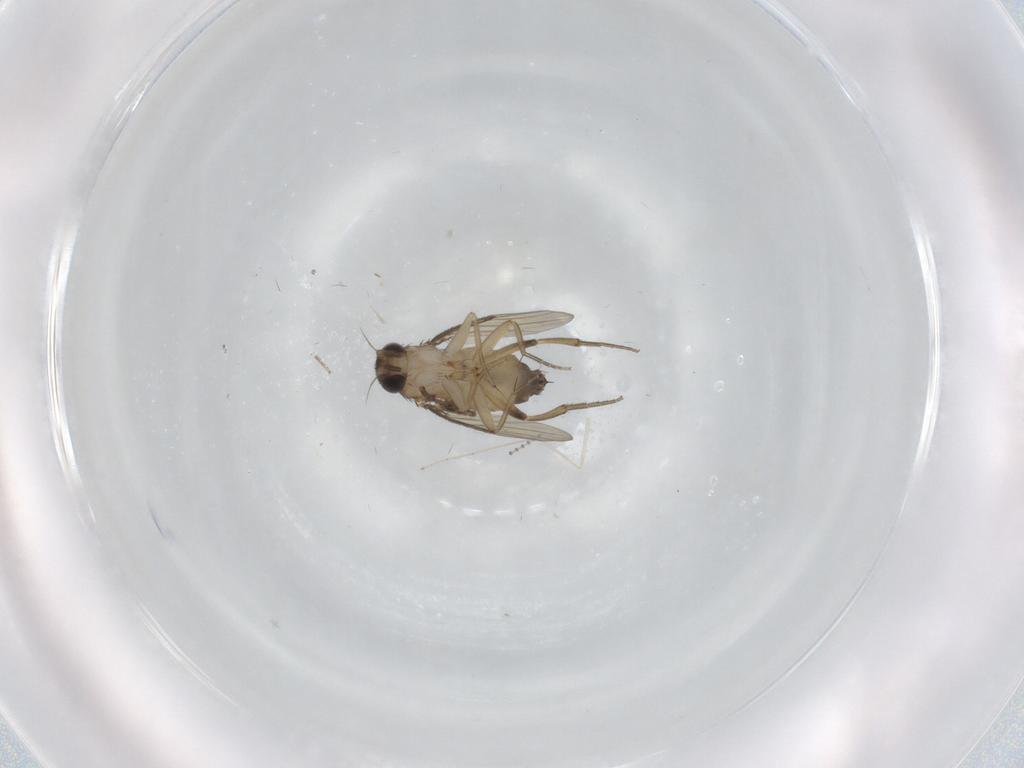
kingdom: Animalia
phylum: Arthropoda
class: Insecta
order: Diptera
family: Cecidomyiidae
